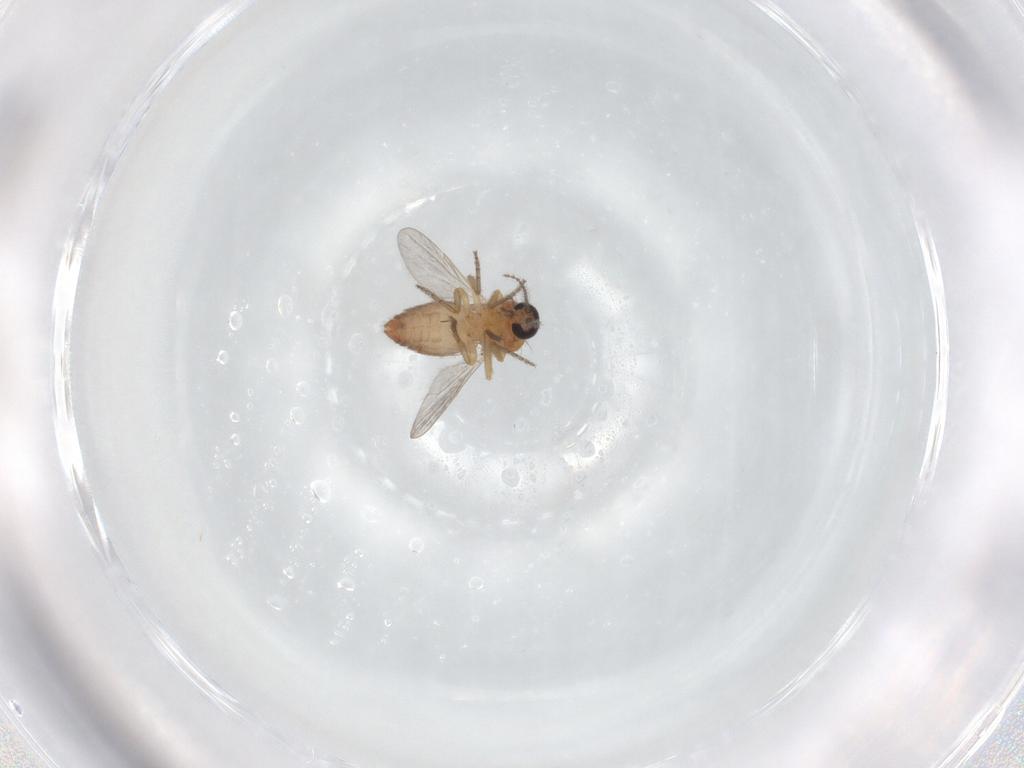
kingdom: Animalia
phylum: Arthropoda
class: Insecta
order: Diptera
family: Ceratopogonidae
